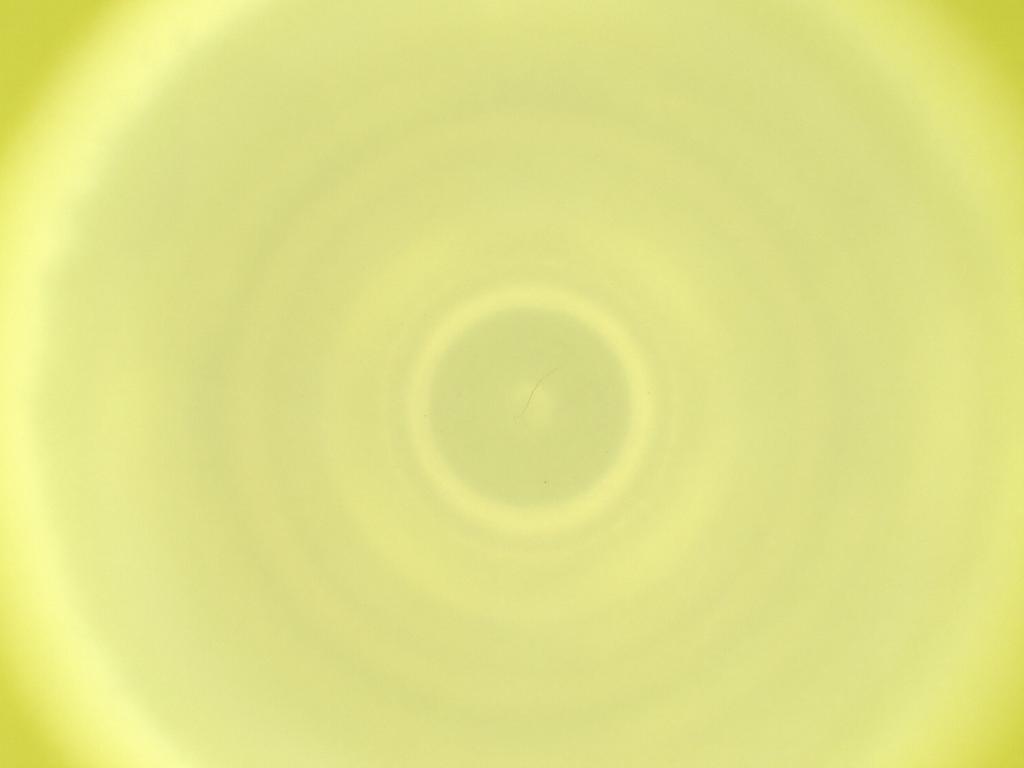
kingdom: Animalia
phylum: Arthropoda
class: Insecta
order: Diptera
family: Cecidomyiidae
